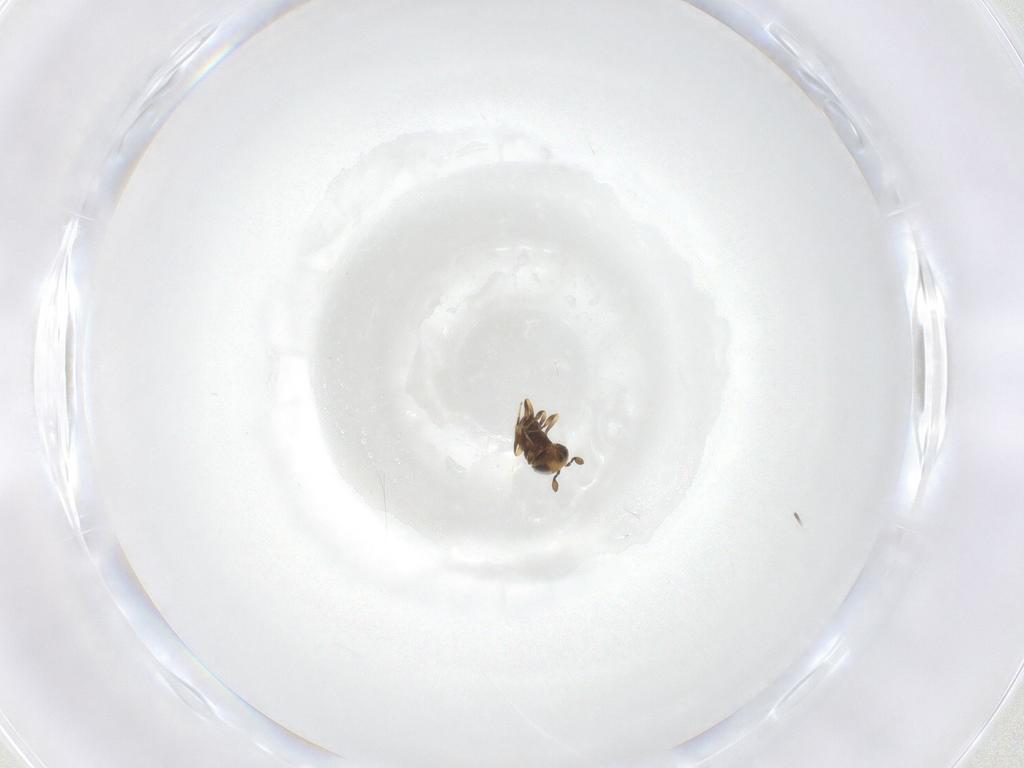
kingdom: Animalia
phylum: Arthropoda
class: Insecta
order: Hymenoptera
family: Scelionidae
